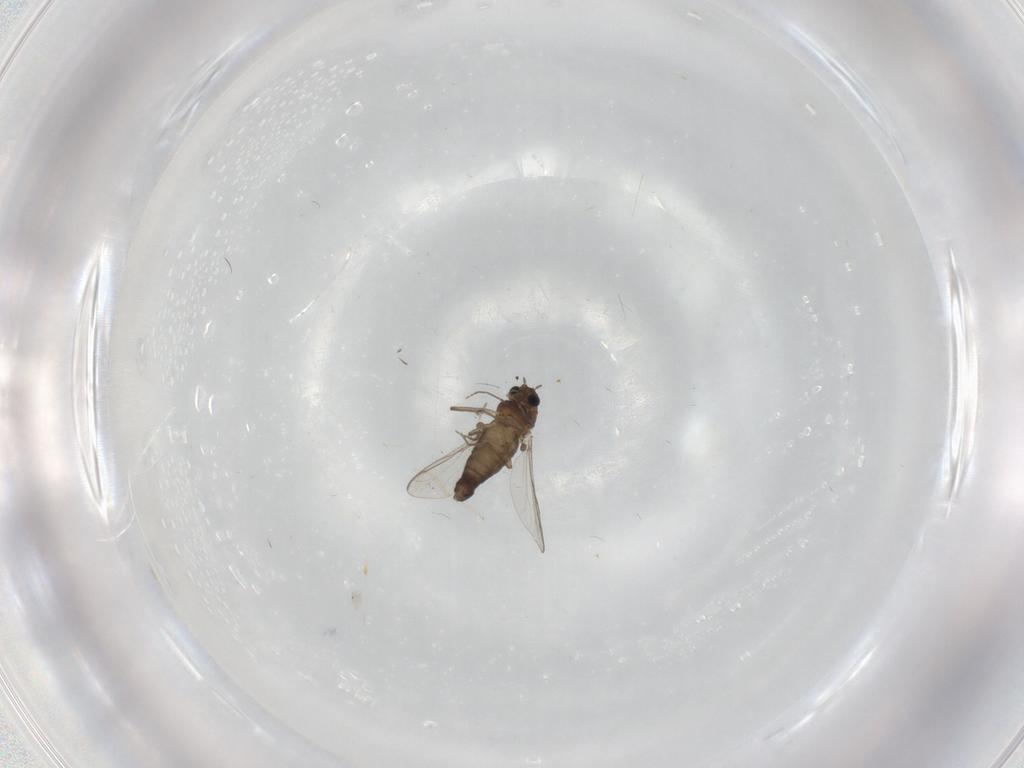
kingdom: Animalia
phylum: Arthropoda
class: Insecta
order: Diptera
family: Chironomidae
